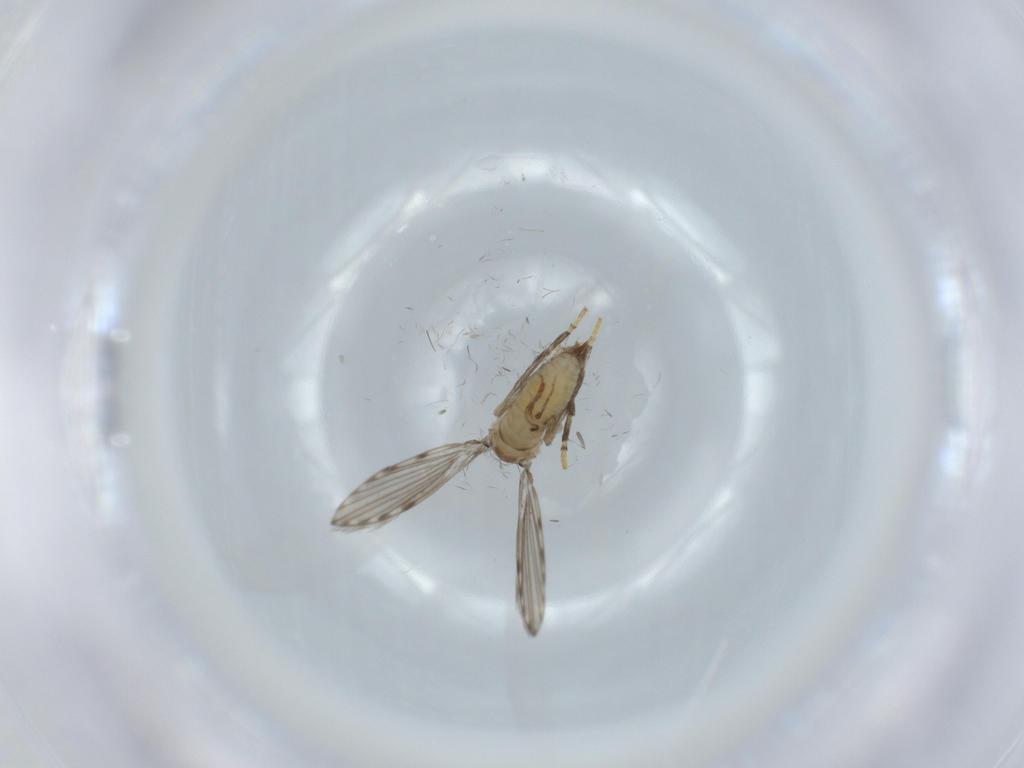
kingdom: Animalia
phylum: Arthropoda
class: Insecta
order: Diptera
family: Psychodidae
